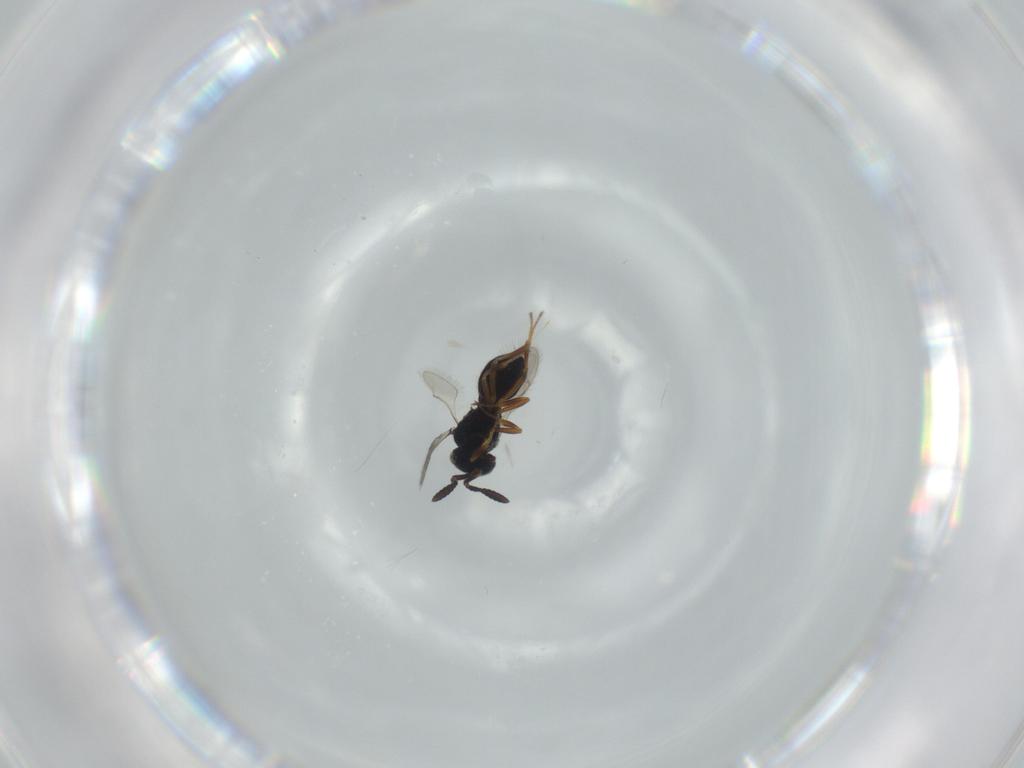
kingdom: Animalia
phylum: Arthropoda
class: Insecta
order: Hymenoptera
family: Scelionidae
